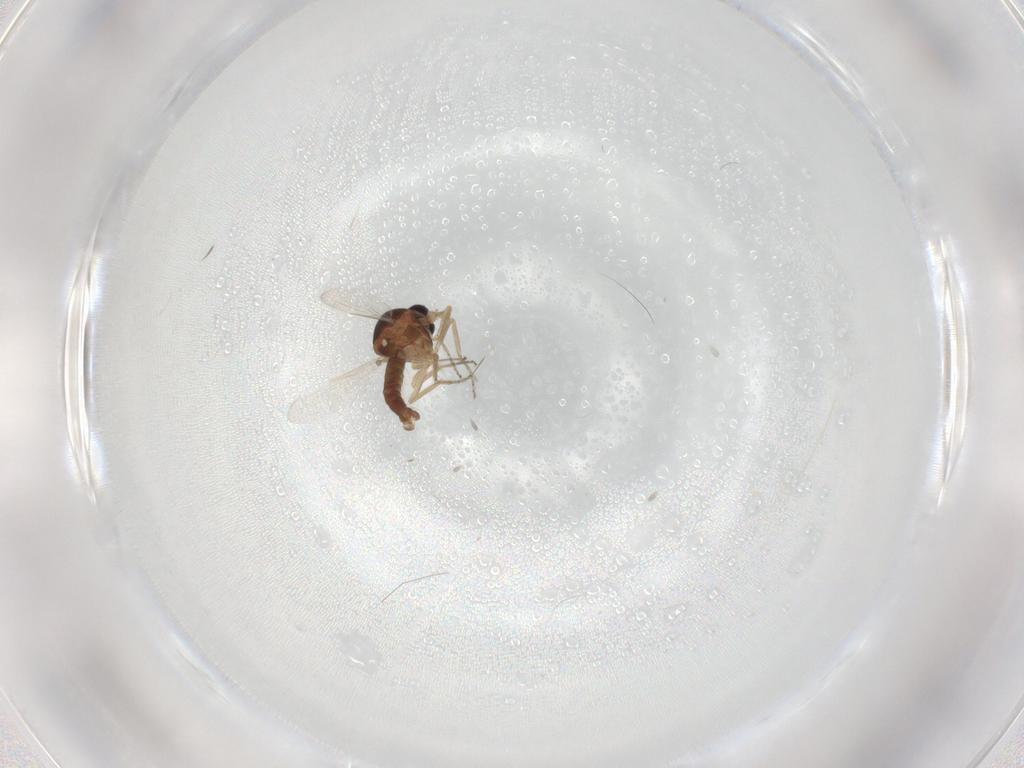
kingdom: Animalia
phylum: Arthropoda
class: Insecta
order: Diptera
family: Ceratopogonidae
